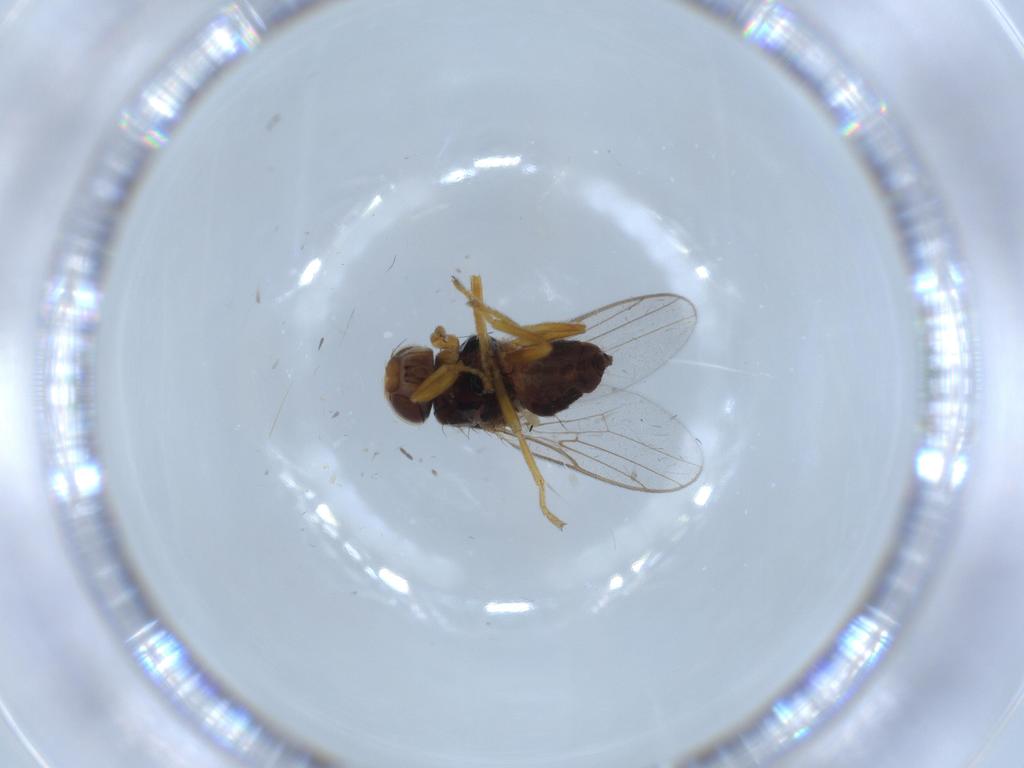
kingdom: Animalia
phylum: Arthropoda
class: Insecta
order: Diptera
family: Chloropidae
